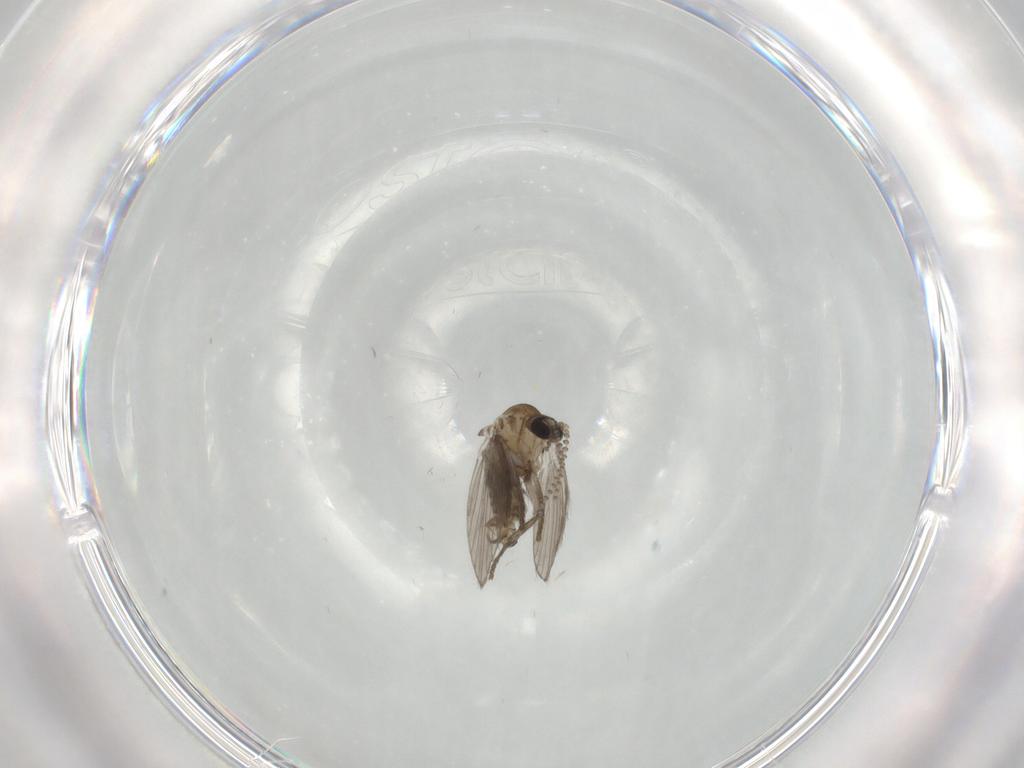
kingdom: Animalia
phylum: Arthropoda
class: Insecta
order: Diptera
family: Psychodidae
